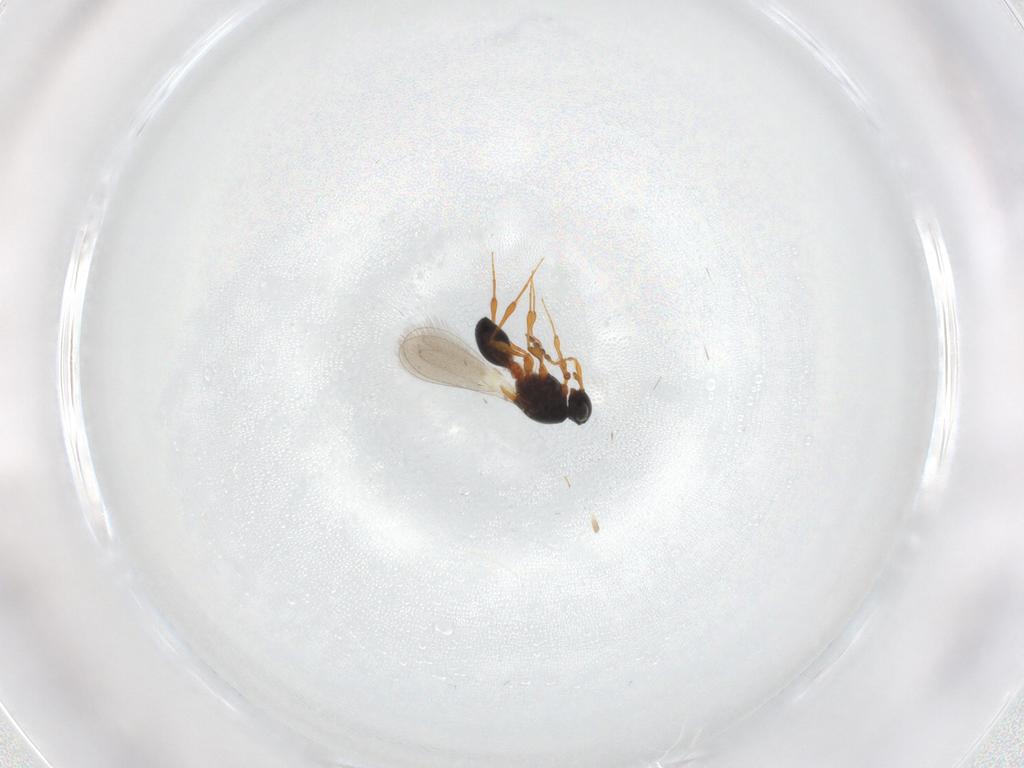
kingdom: Animalia
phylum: Arthropoda
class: Insecta
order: Hymenoptera
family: Platygastridae
